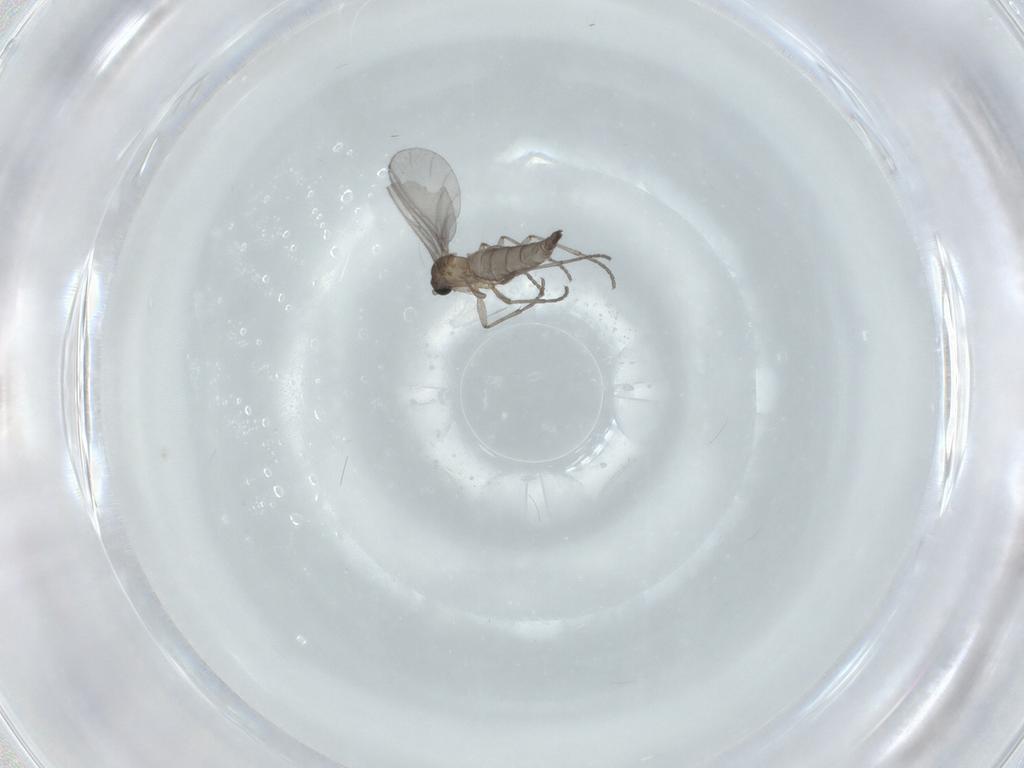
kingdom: Animalia
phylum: Arthropoda
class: Insecta
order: Diptera
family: Sciaridae
